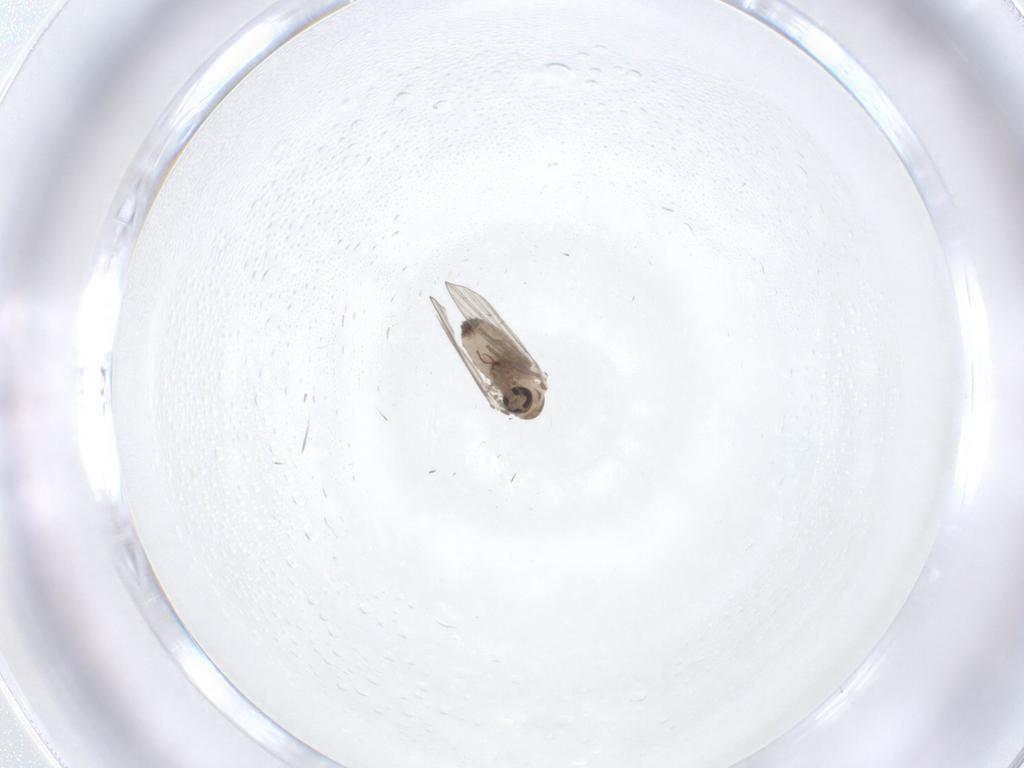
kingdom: Animalia
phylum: Arthropoda
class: Insecta
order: Diptera
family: Psychodidae
